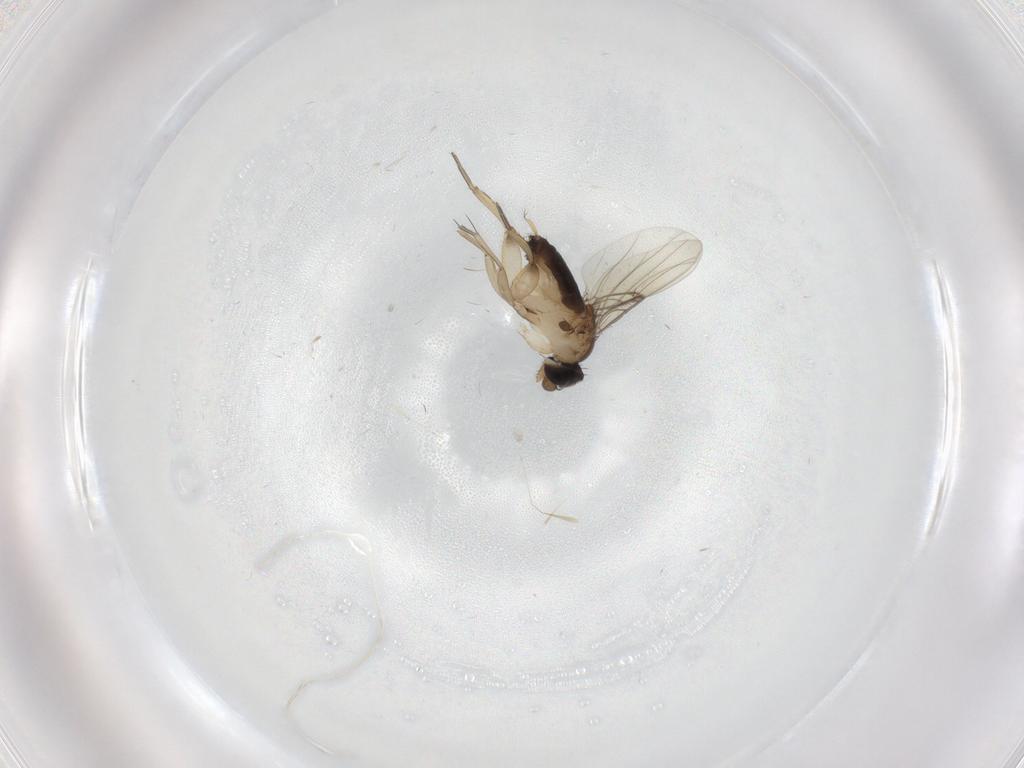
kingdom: Animalia
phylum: Arthropoda
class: Insecta
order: Diptera
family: Phoridae
